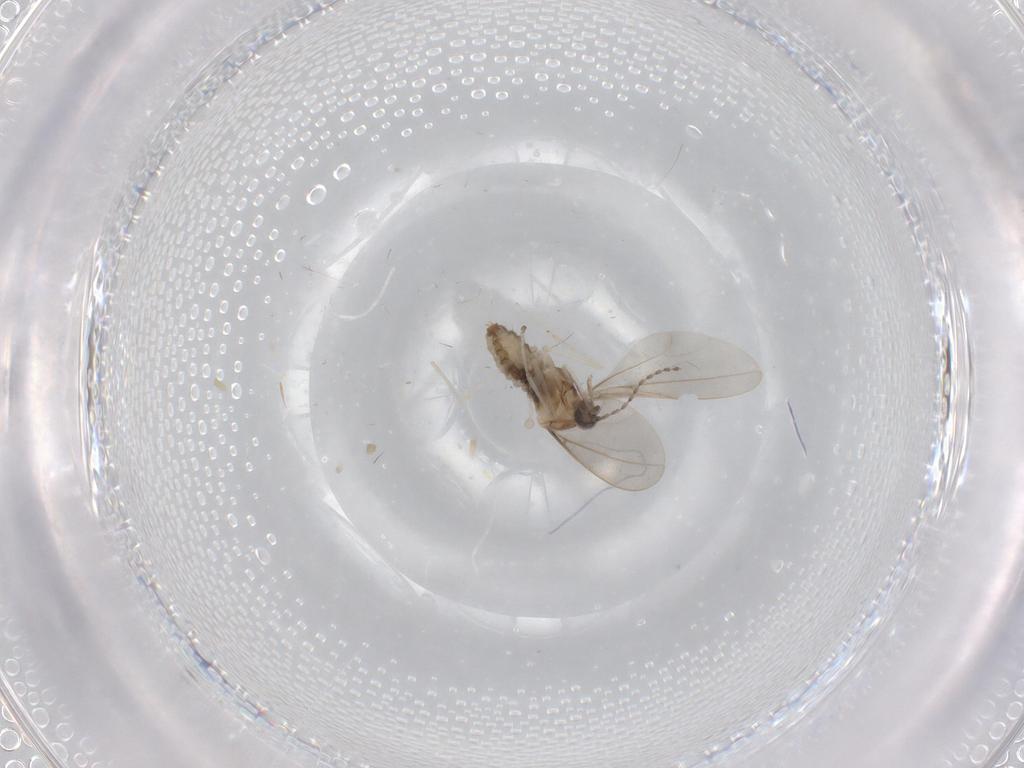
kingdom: Animalia
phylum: Arthropoda
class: Insecta
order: Diptera
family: Cecidomyiidae
